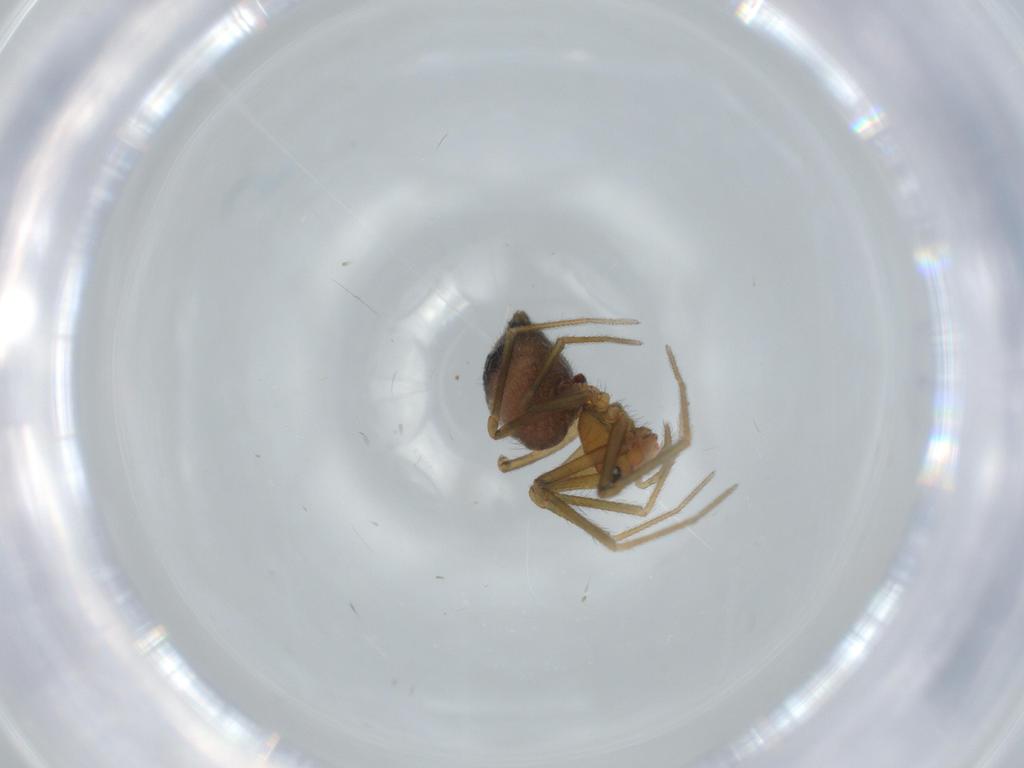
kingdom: Animalia
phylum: Arthropoda
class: Arachnida
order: Araneae
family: Linyphiidae
